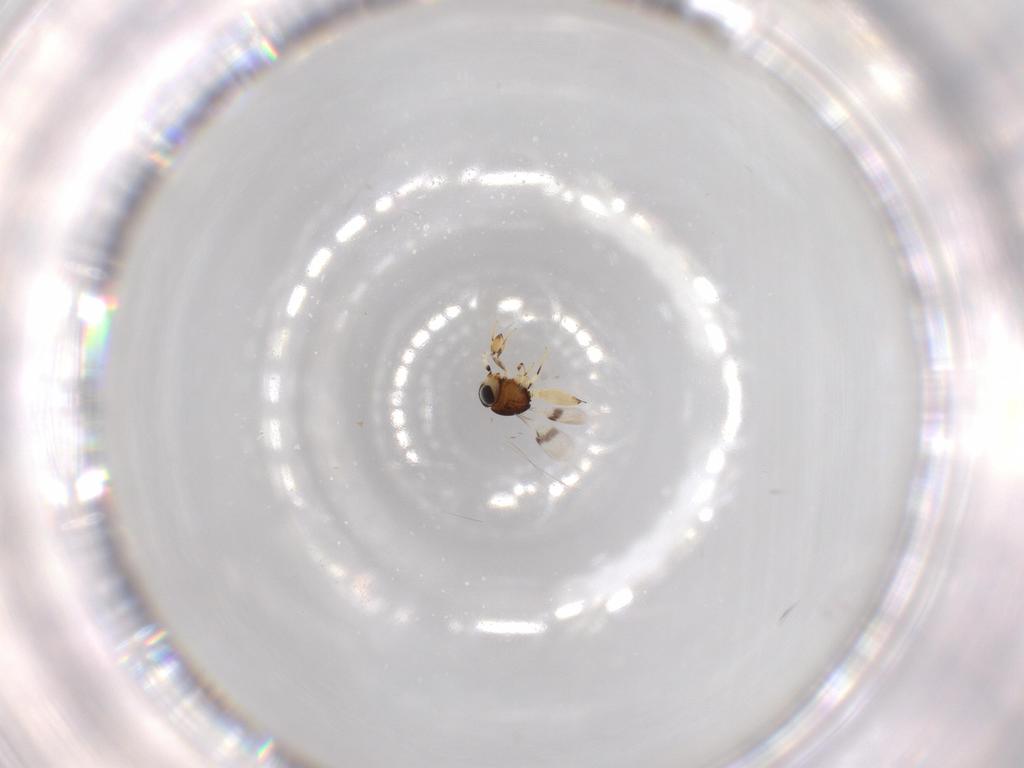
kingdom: Animalia
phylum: Arthropoda
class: Insecta
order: Hymenoptera
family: Scelionidae
